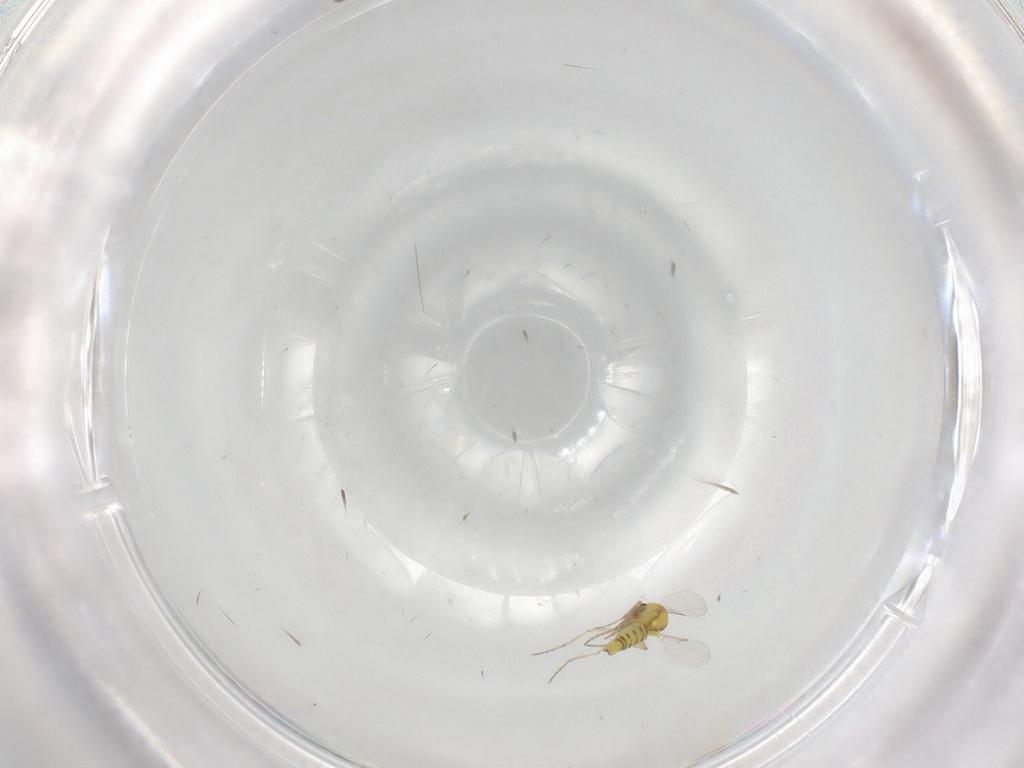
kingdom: Animalia
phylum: Arthropoda
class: Insecta
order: Diptera
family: Ceratopogonidae
